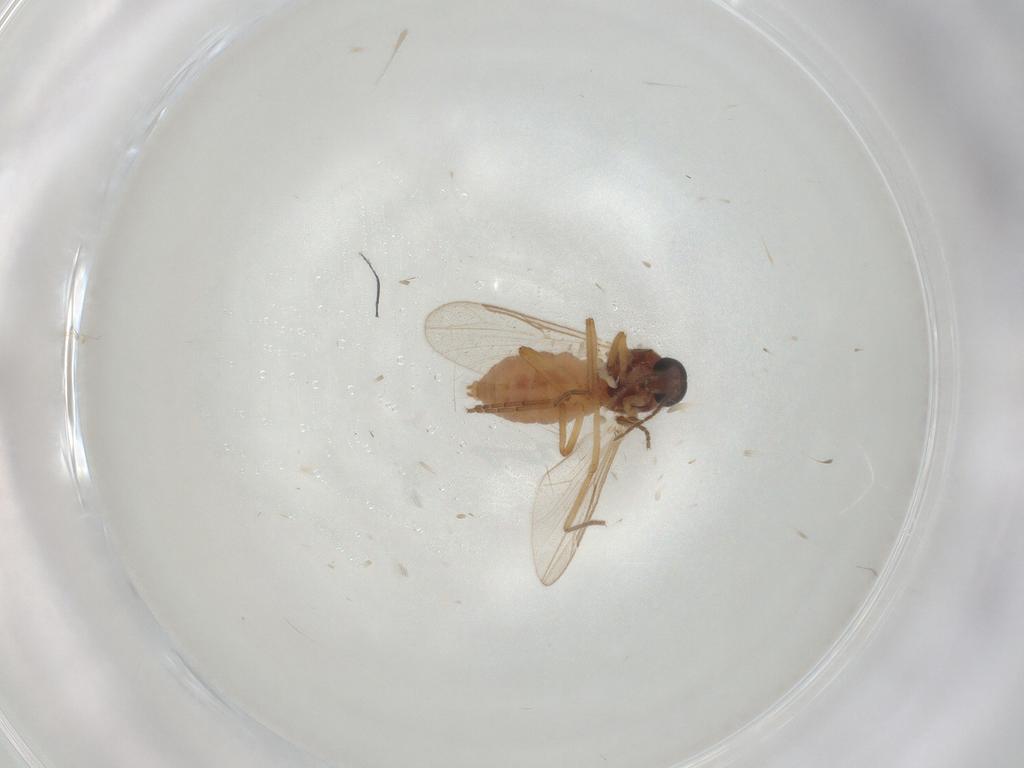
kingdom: Animalia
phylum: Arthropoda
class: Insecta
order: Diptera
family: Ceratopogonidae
